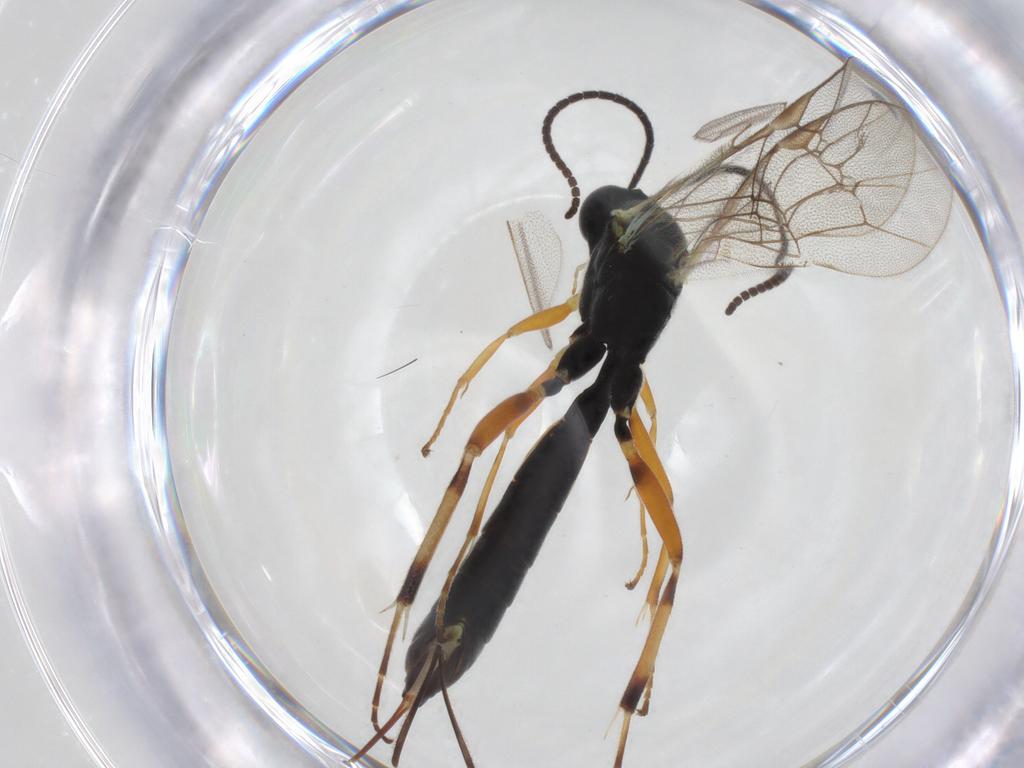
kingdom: Animalia
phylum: Arthropoda
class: Insecta
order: Hymenoptera
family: Ichneumonidae
